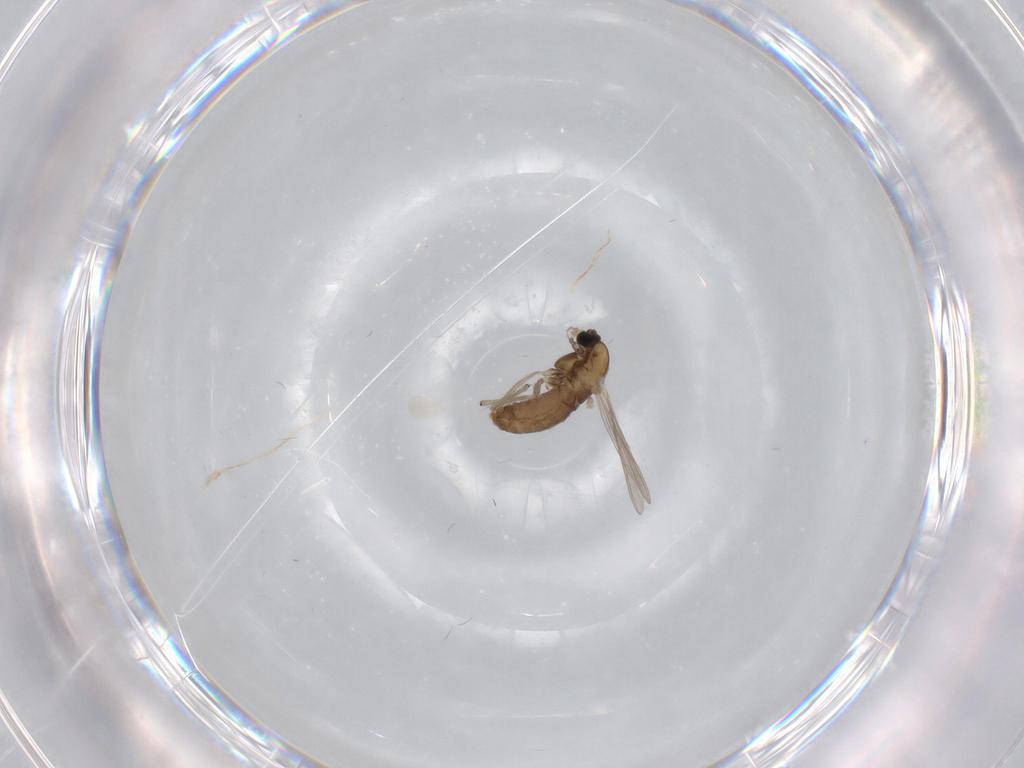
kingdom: Animalia
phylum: Arthropoda
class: Insecta
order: Diptera
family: Chironomidae
